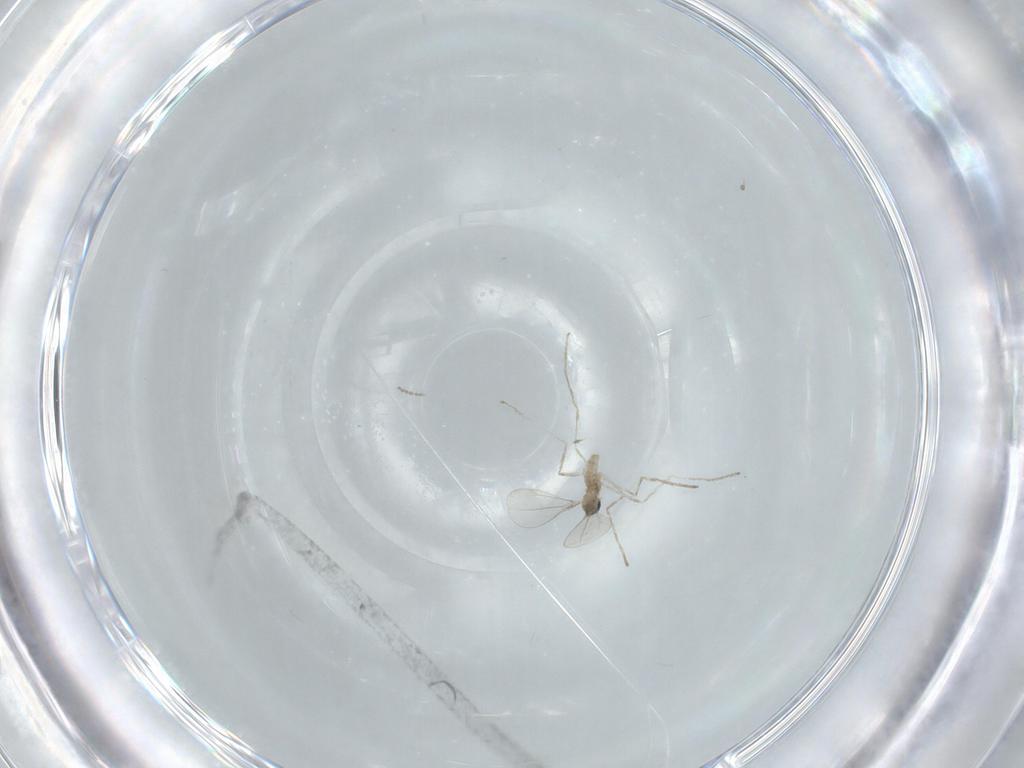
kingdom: Animalia
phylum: Arthropoda
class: Insecta
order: Diptera
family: Cecidomyiidae
